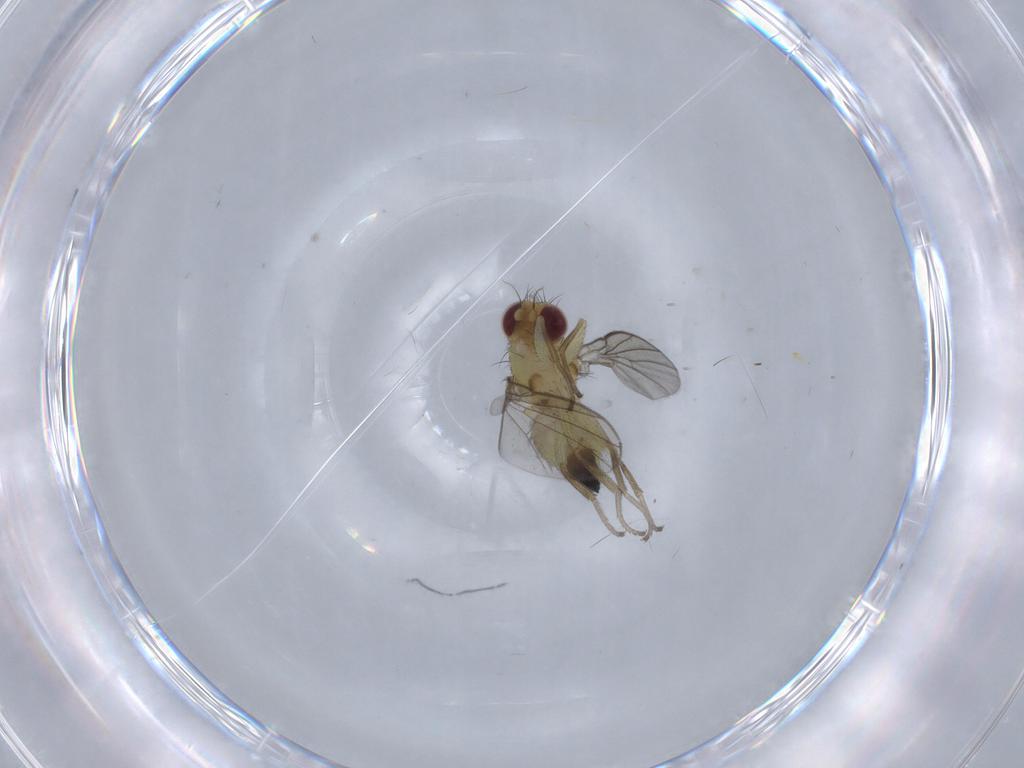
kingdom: Animalia
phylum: Arthropoda
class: Insecta
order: Diptera
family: Agromyzidae
